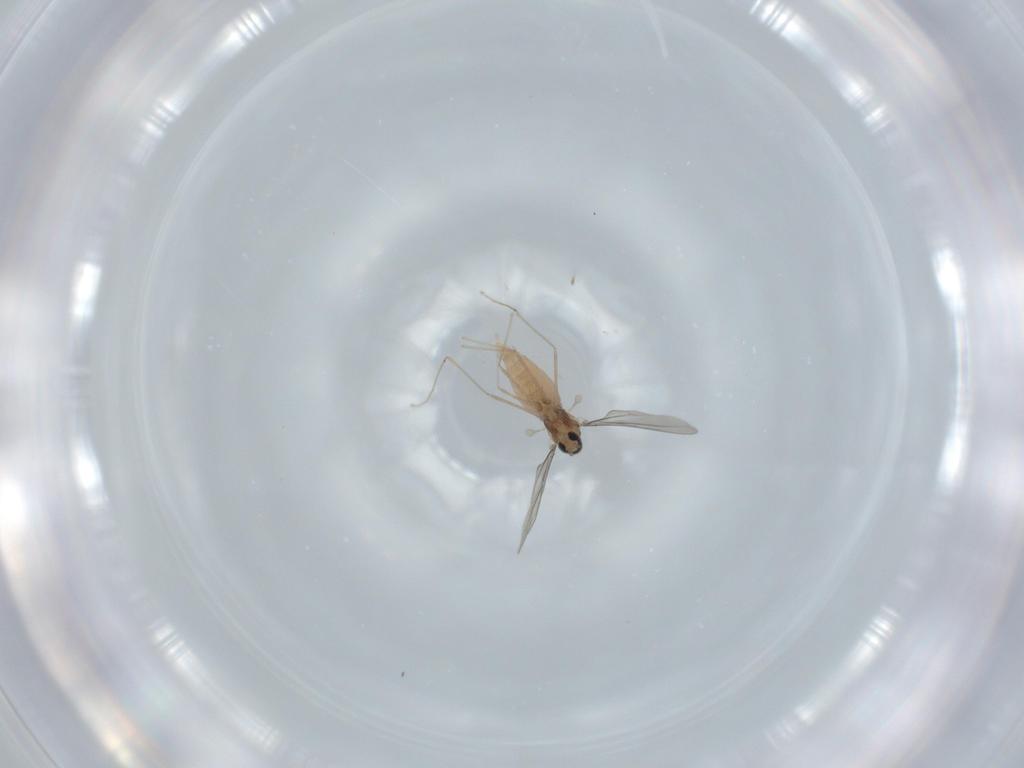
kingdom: Animalia
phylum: Arthropoda
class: Insecta
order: Diptera
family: Cecidomyiidae
